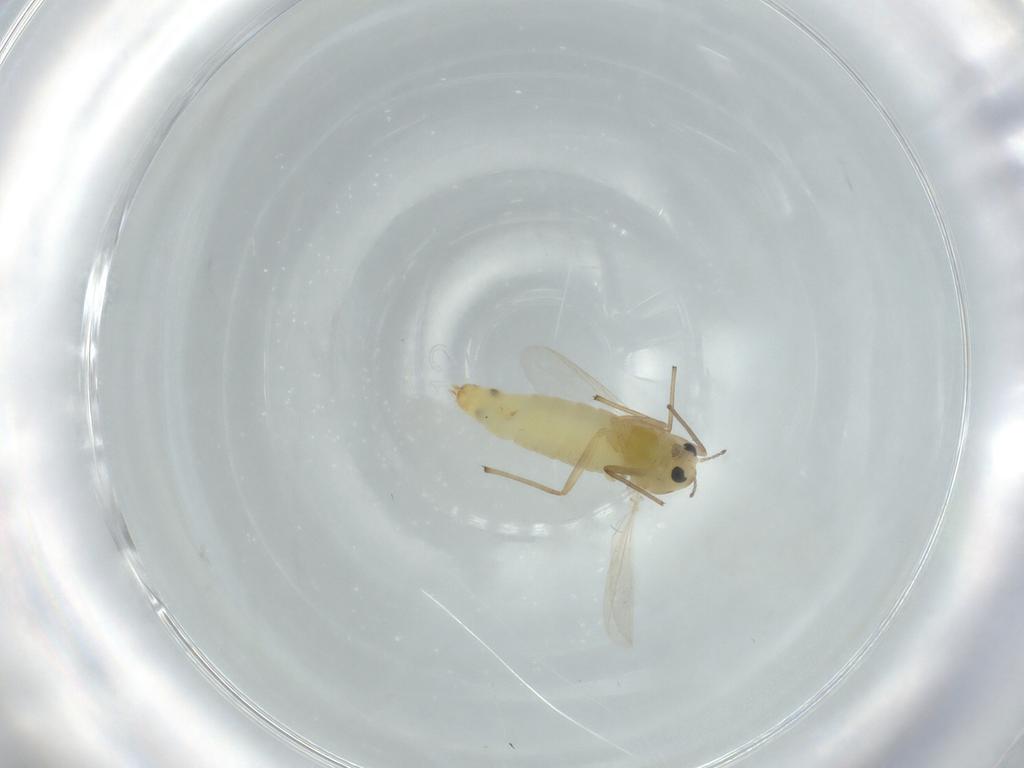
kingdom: Animalia
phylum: Arthropoda
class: Insecta
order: Diptera
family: Chironomidae
